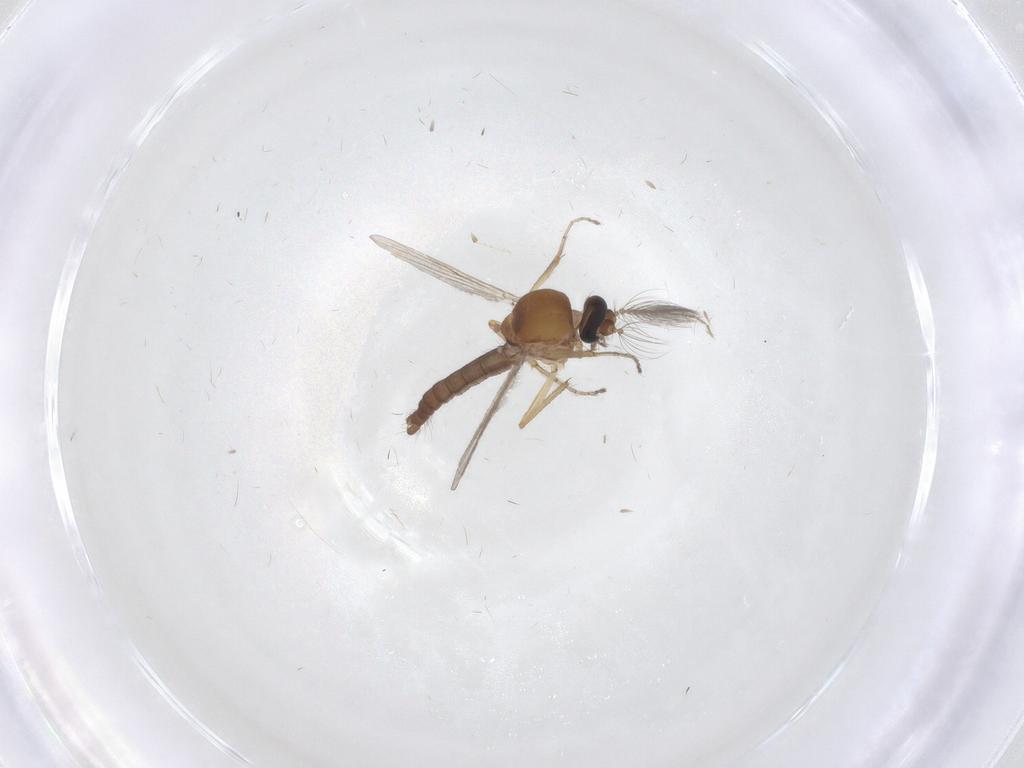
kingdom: Animalia
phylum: Arthropoda
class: Insecta
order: Diptera
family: Ceratopogonidae
